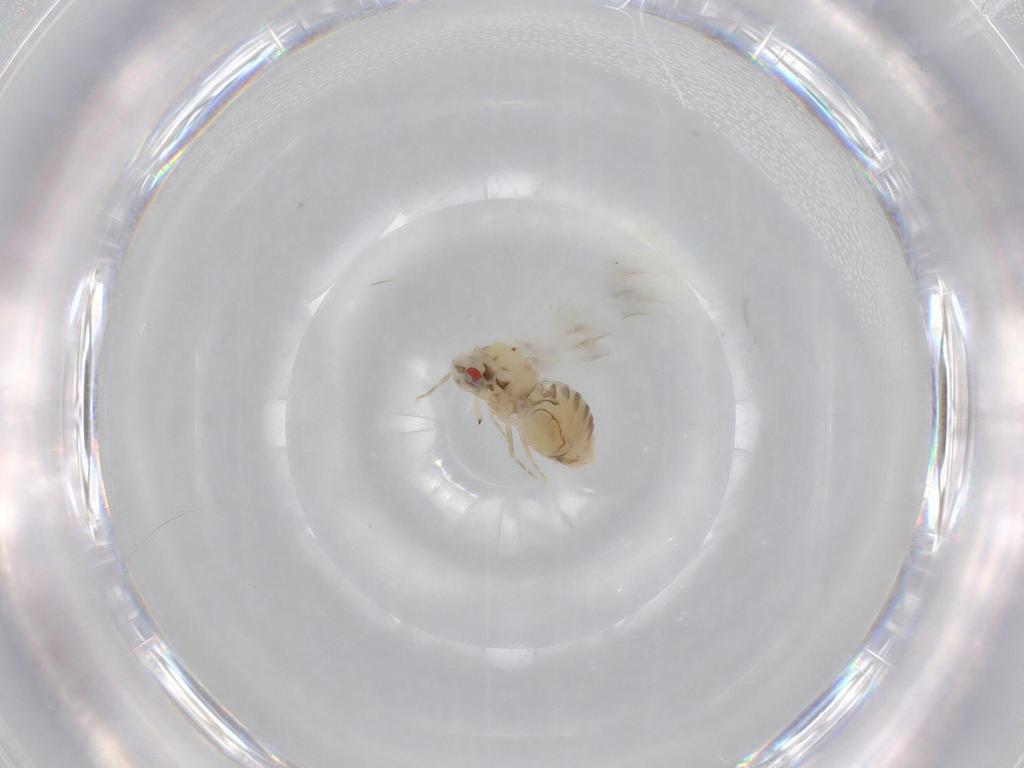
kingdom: Animalia
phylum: Arthropoda
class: Insecta
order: Hemiptera
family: Aleyrodidae
